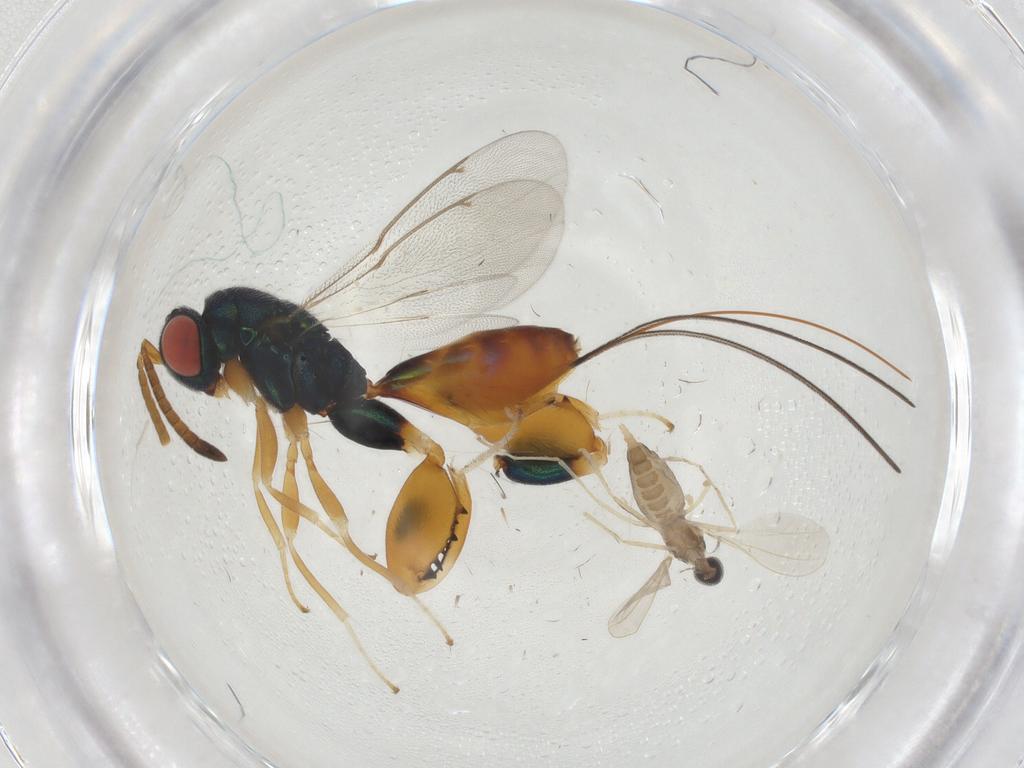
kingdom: Animalia
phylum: Arthropoda
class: Insecta
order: Diptera
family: Cecidomyiidae
